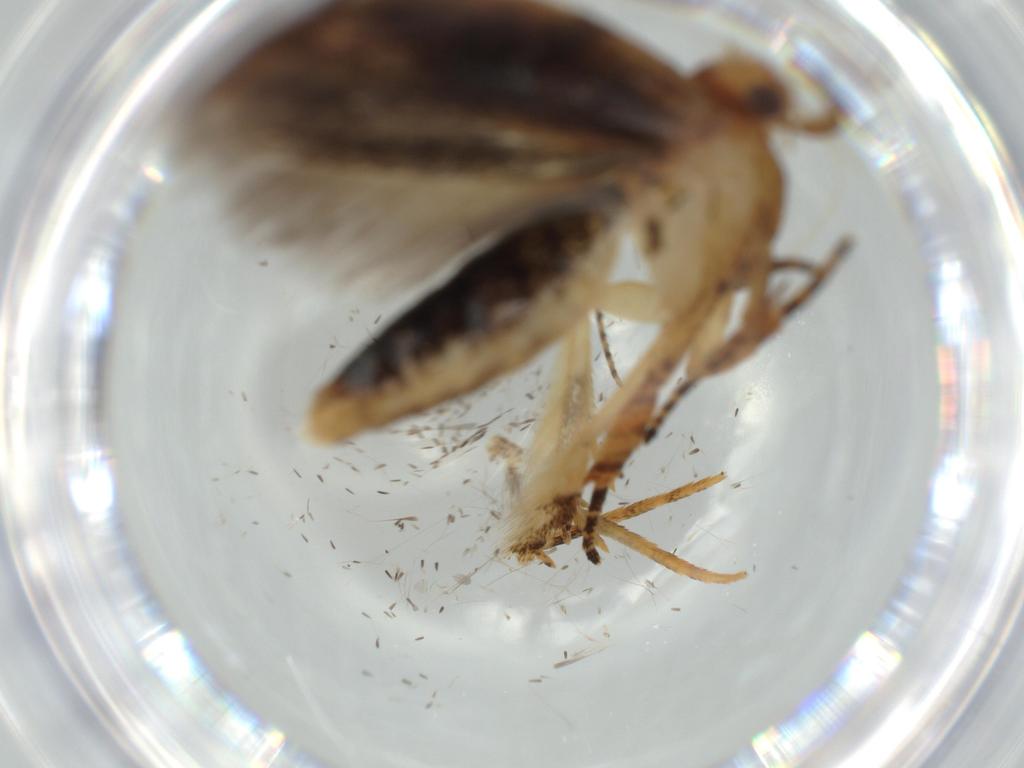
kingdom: Animalia
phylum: Arthropoda
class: Insecta
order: Lepidoptera
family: Gelechiidae
